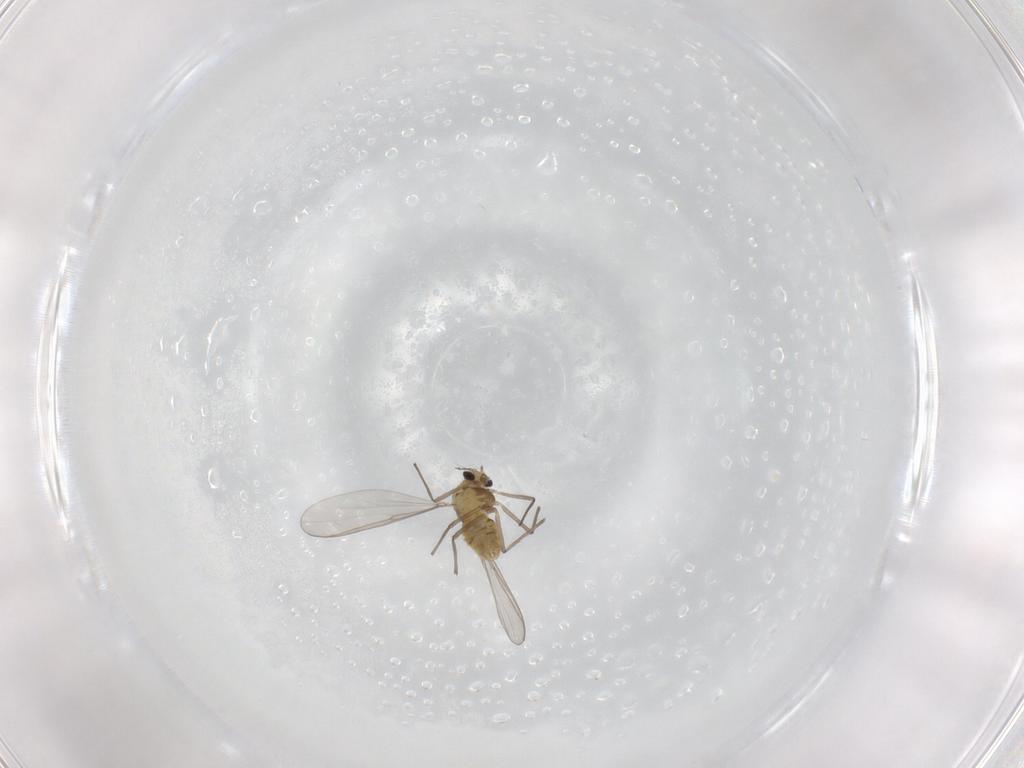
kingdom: Animalia
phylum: Arthropoda
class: Insecta
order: Diptera
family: Chironomidae
